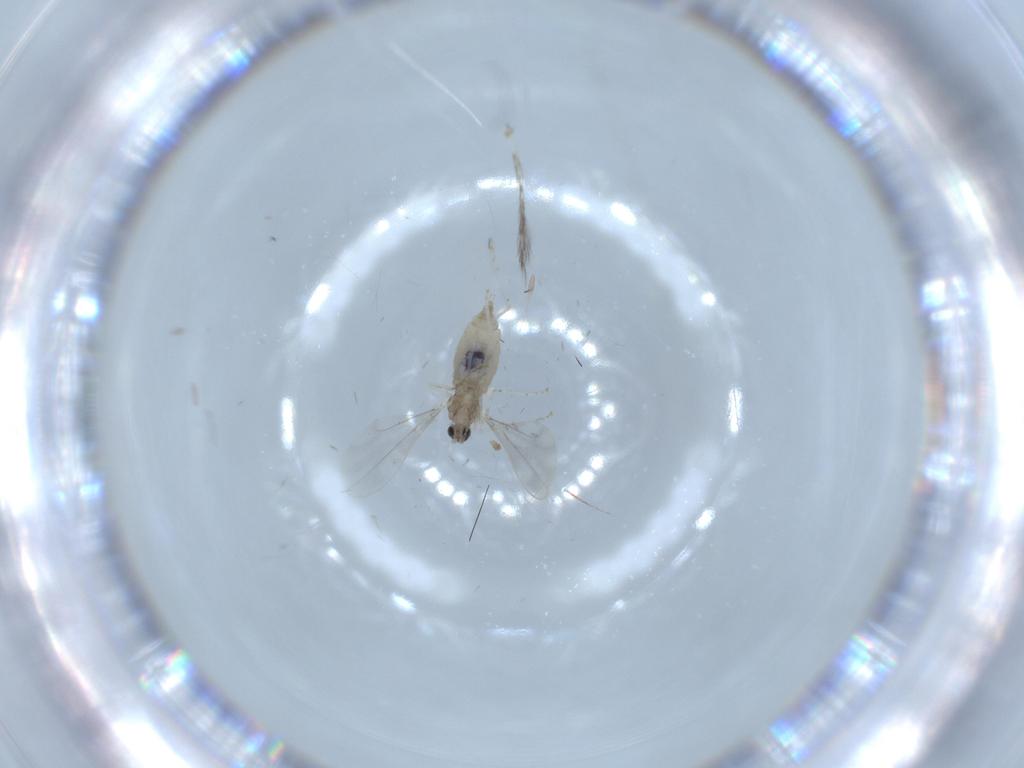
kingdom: Animalia
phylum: Arthropoda
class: Insecta
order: Diptera
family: Cecidomyiidae
